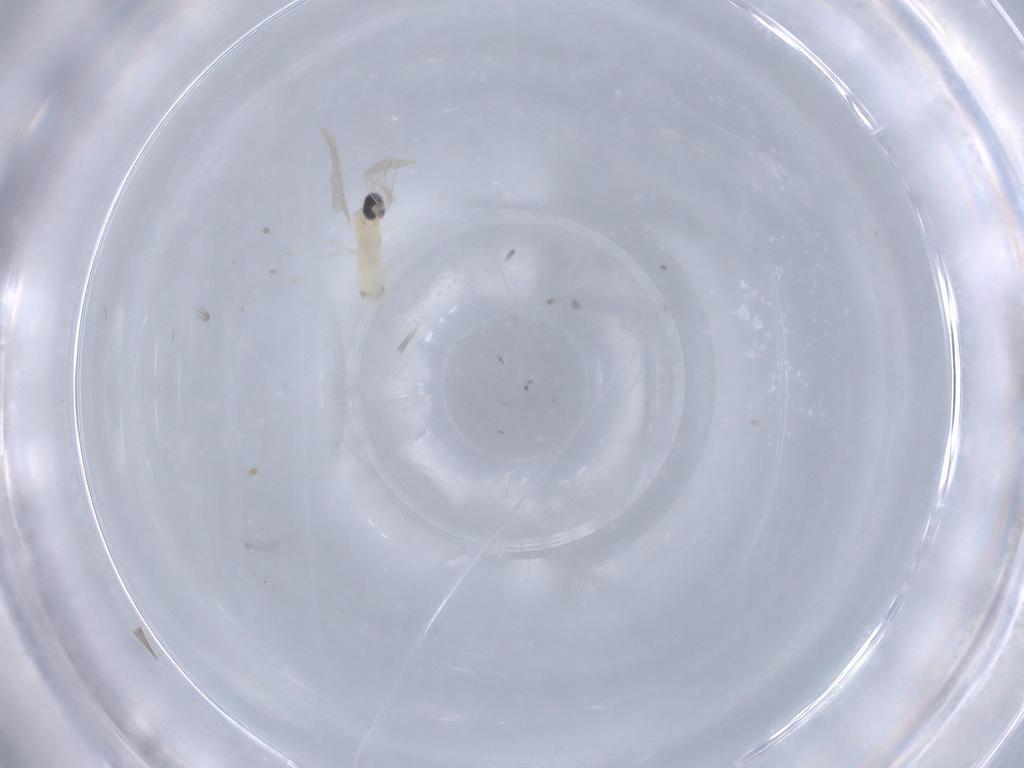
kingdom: Animalia
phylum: Arthropoda
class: Insecta
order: Diptera
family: Cecidomyiidae
